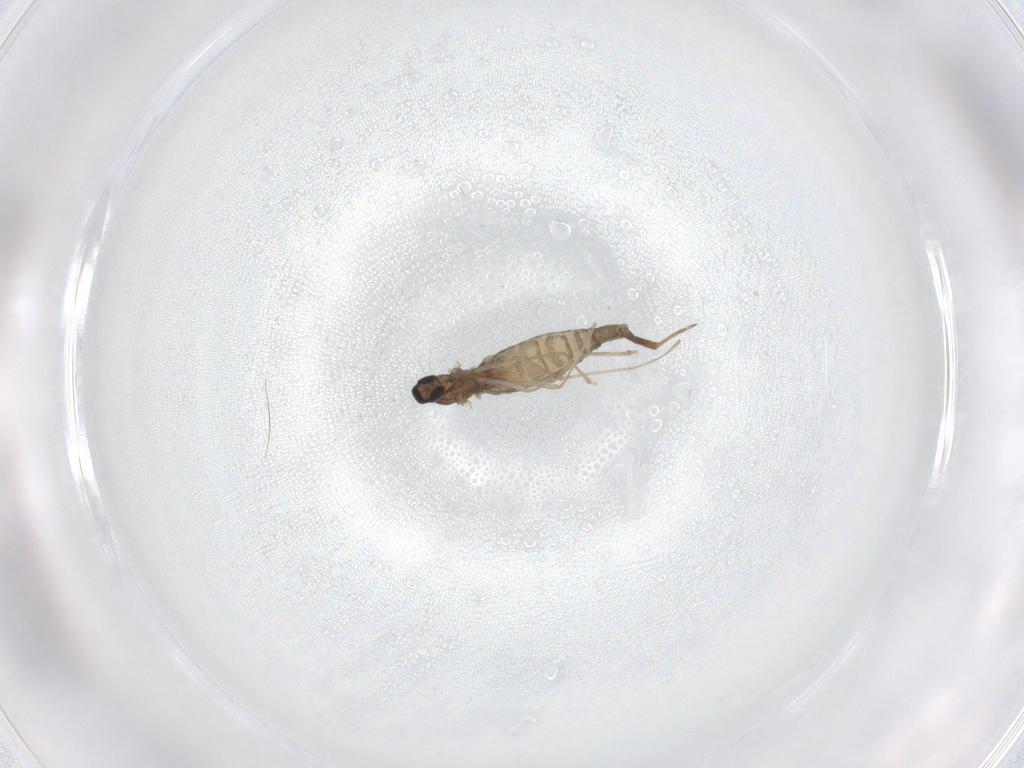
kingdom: Animalia
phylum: Arthropoda
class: Insecta
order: Diptera
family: Cecidomyiidae
